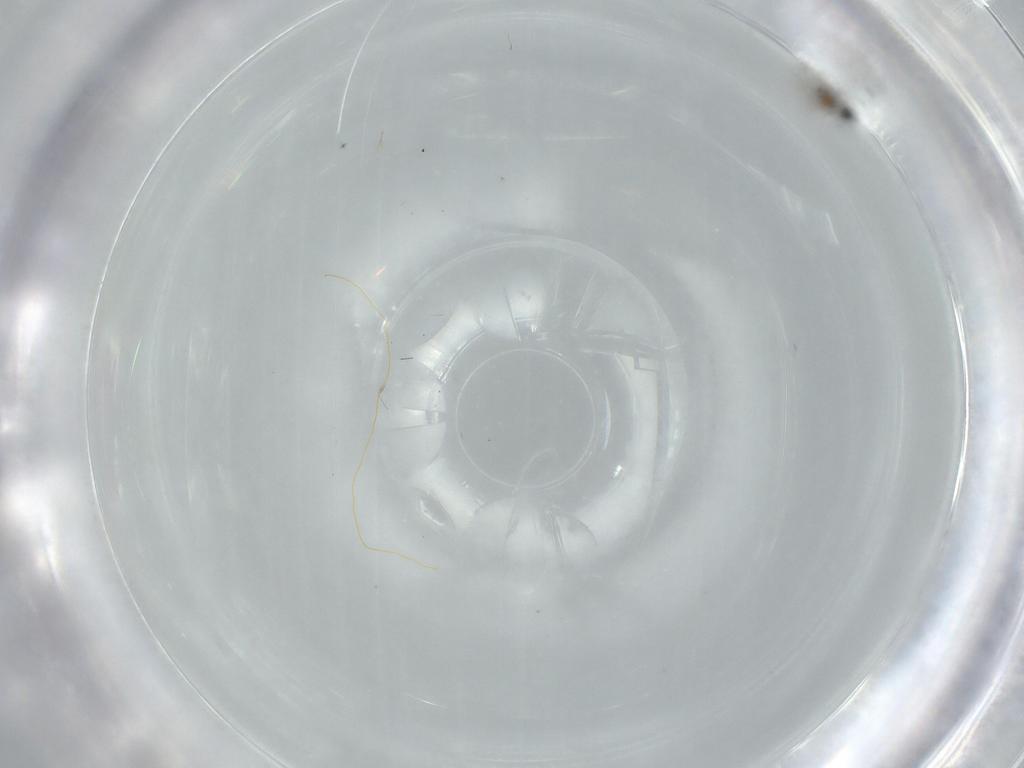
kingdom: Animalia
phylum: Arthropoda
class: Insecta
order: Diptera
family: Cecidomyiidae
